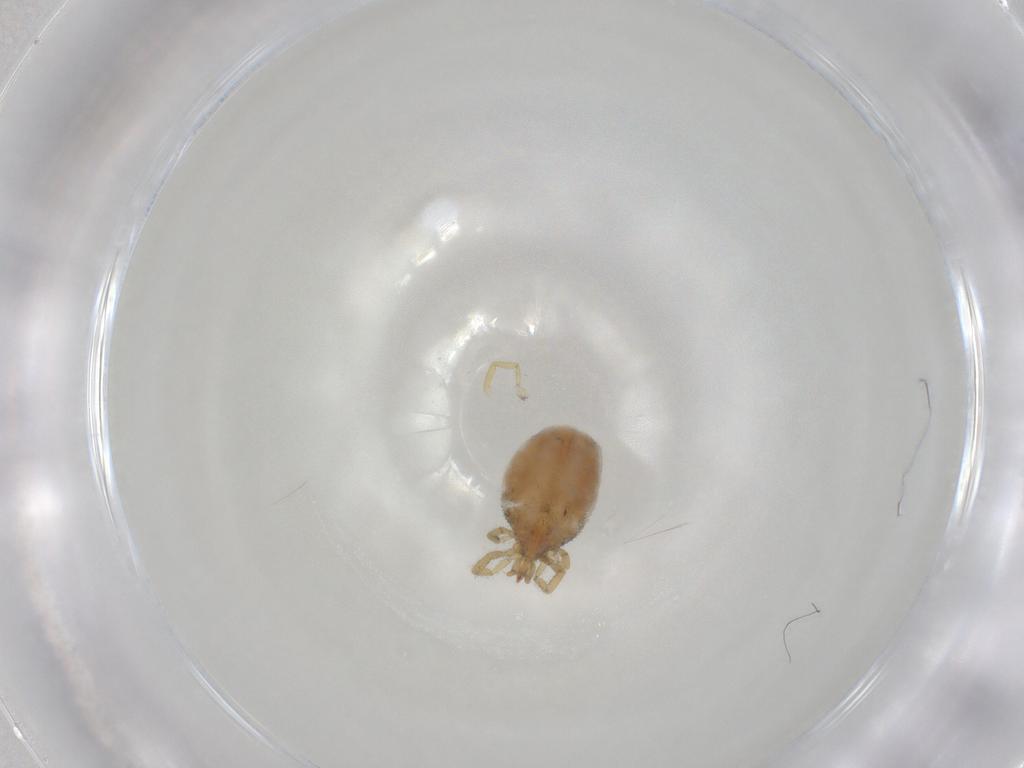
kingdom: Animalia
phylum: Arthropoda
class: Arachnida
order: Trombidiformes
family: Erythraeidae
